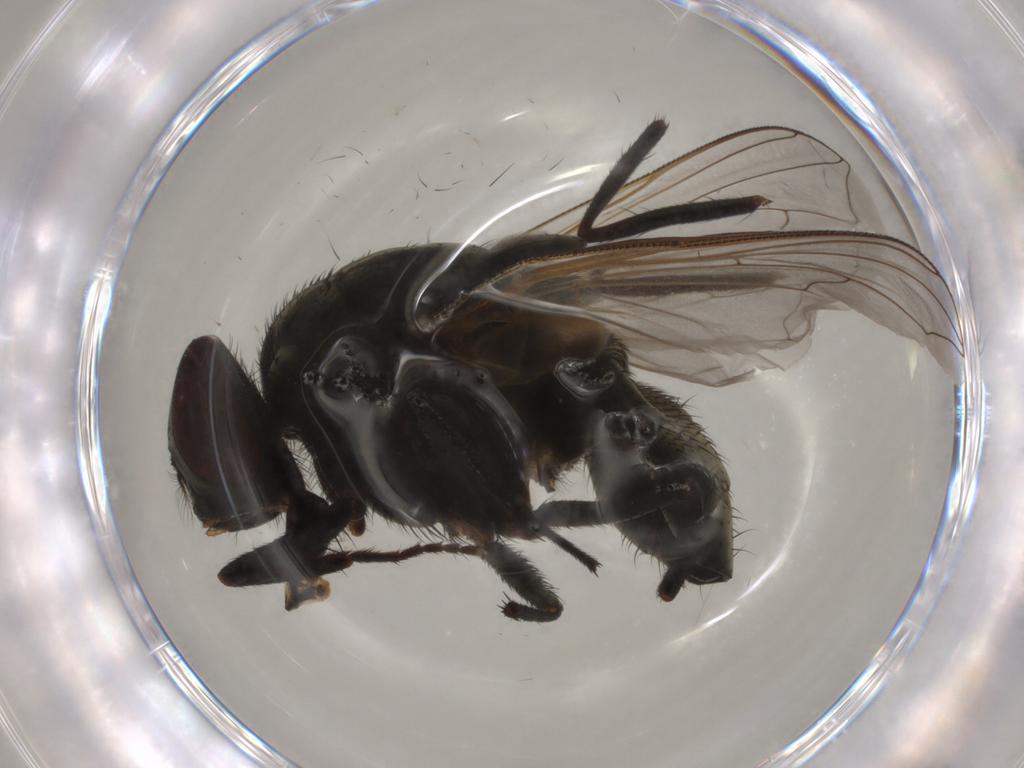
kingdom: Animalia
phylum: Arthropoda
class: Insecta
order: Diptera
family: Muscidae
